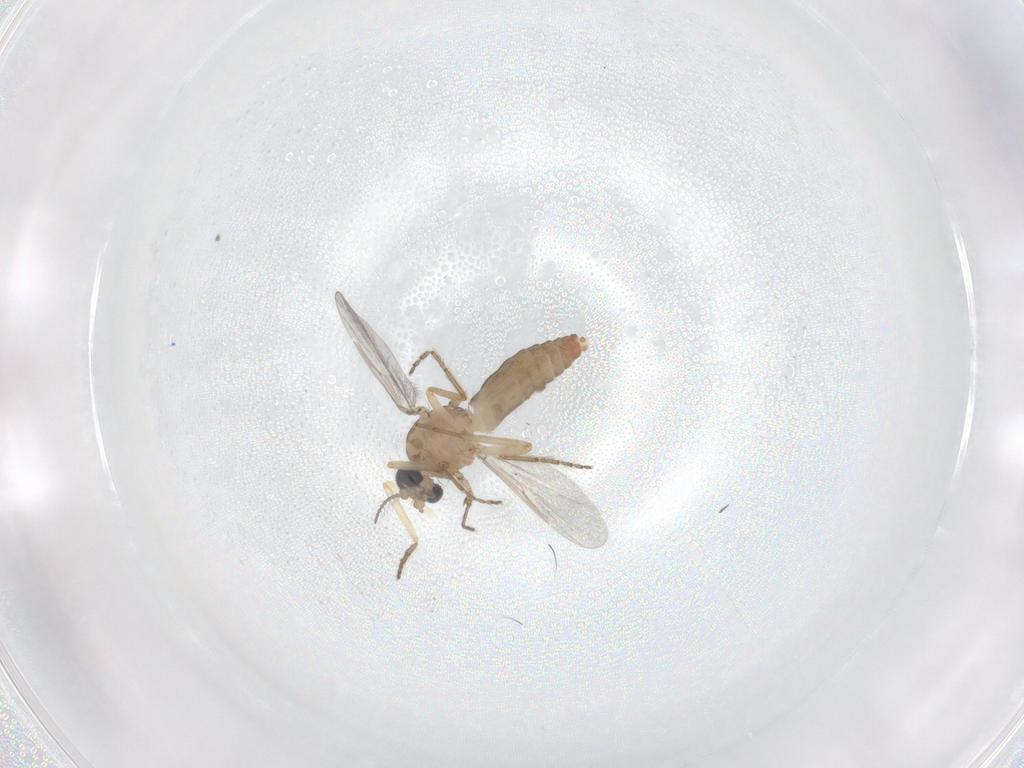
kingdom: Animalia
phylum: Arthropoda
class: Insecta
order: Diptera
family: Ceratopogonidae
